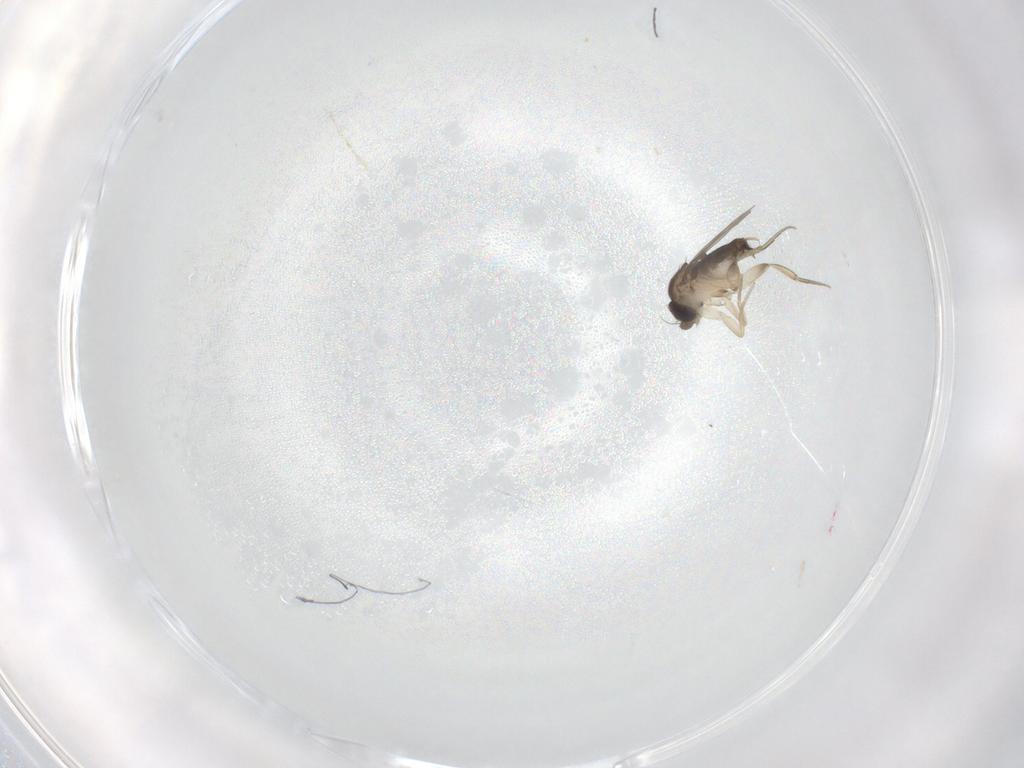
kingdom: Animalia
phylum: Arthropoda
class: Insecta
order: Diptera
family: Phoridae
